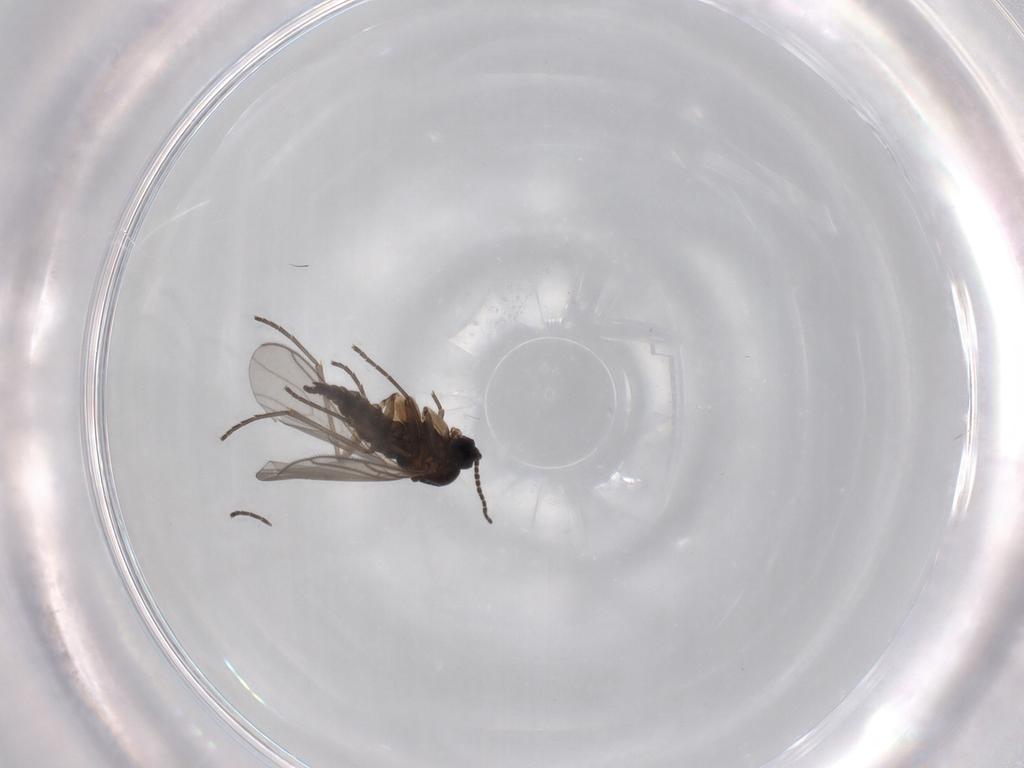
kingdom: Animalia
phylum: Arthropoda
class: Insecta
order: Diptera
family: Sciaridae
